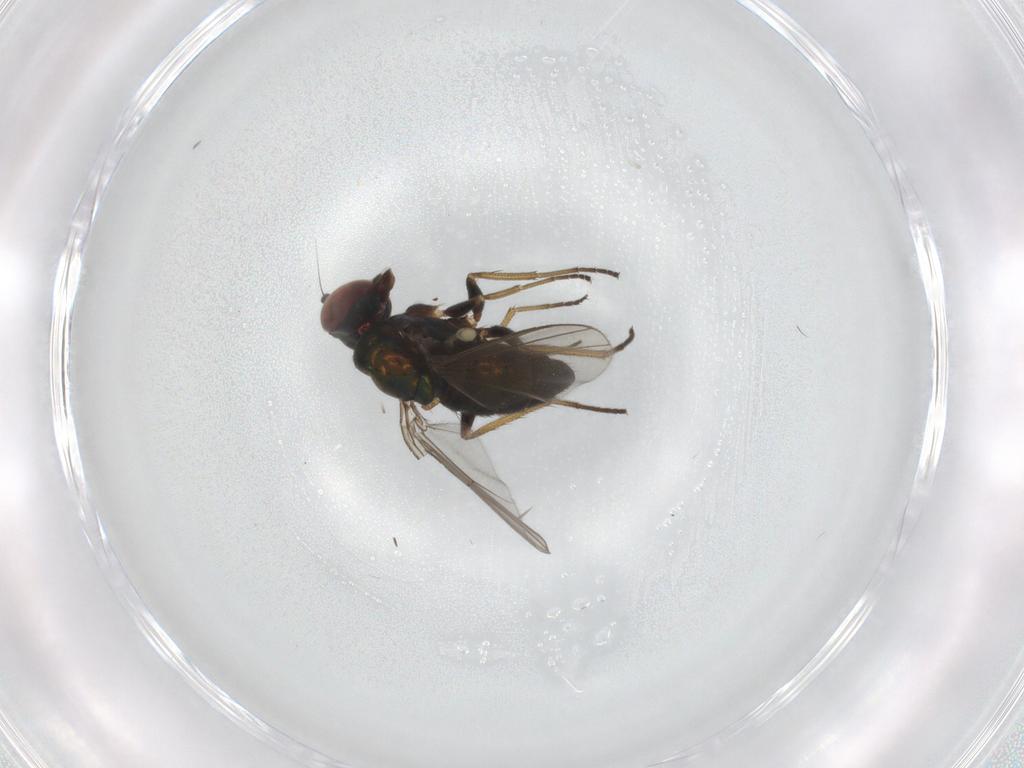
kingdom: Animalia
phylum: Arthropoda
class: Insecta
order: Diptera
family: Dolichopodidae
